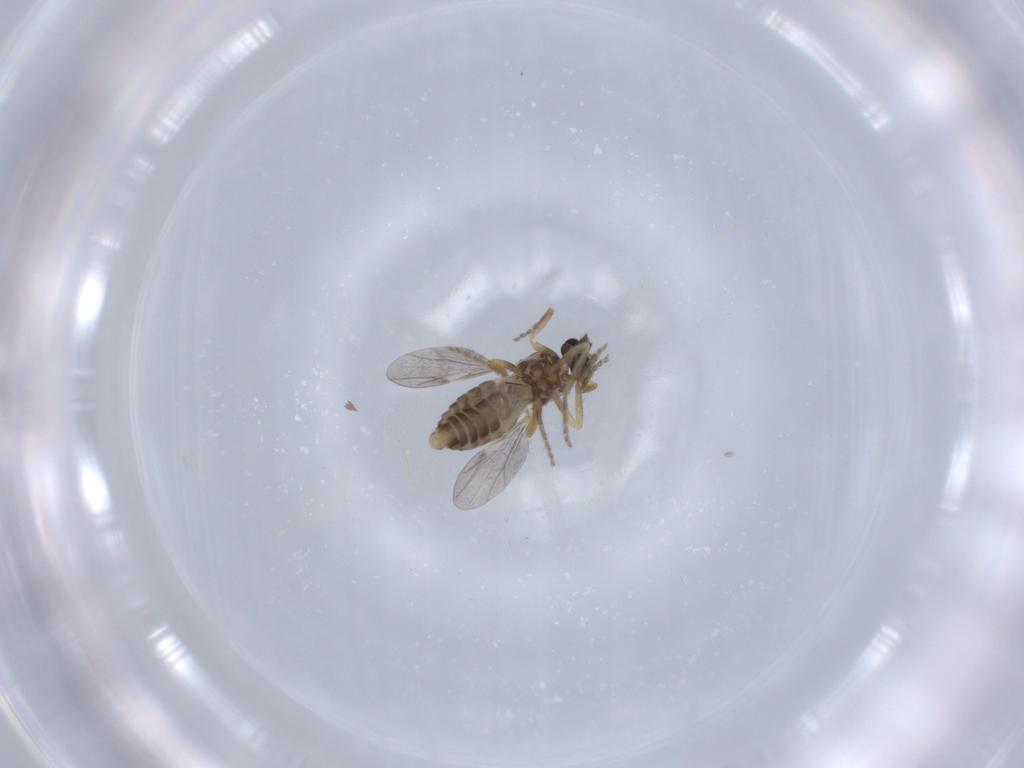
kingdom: Animalia
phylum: Arthropoda
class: Insecta
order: Diptera
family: Ceratopogonidae
